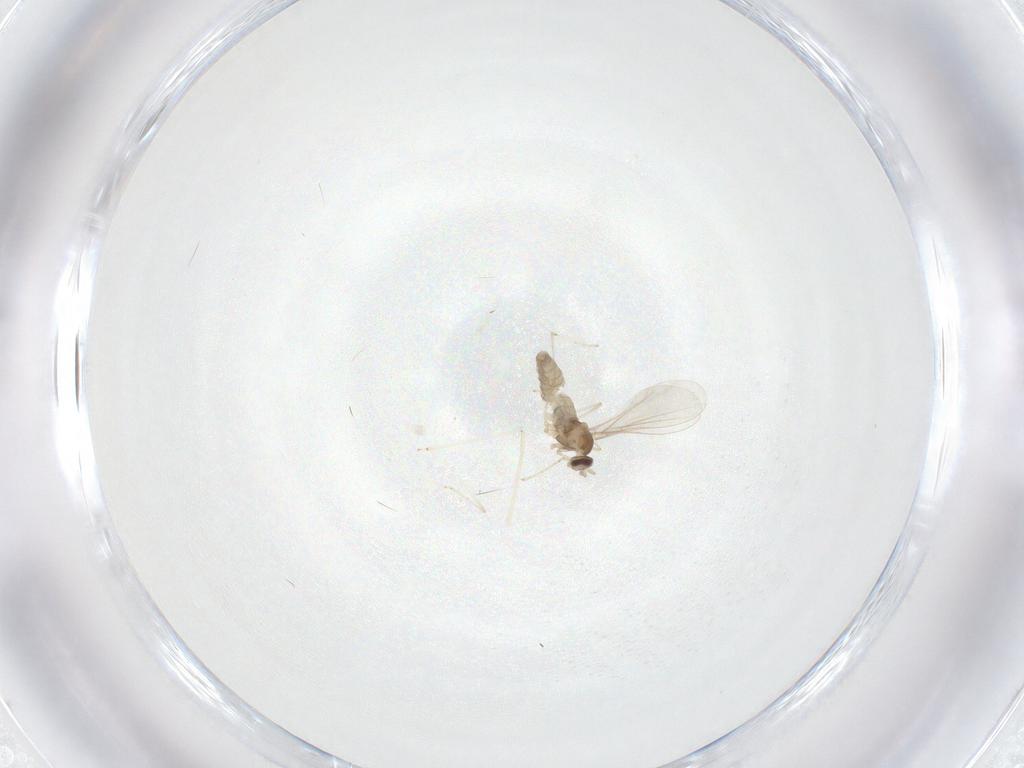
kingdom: Animalia
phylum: Arthropoda
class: Insecta
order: Diptera
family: Cecidomyiidae
